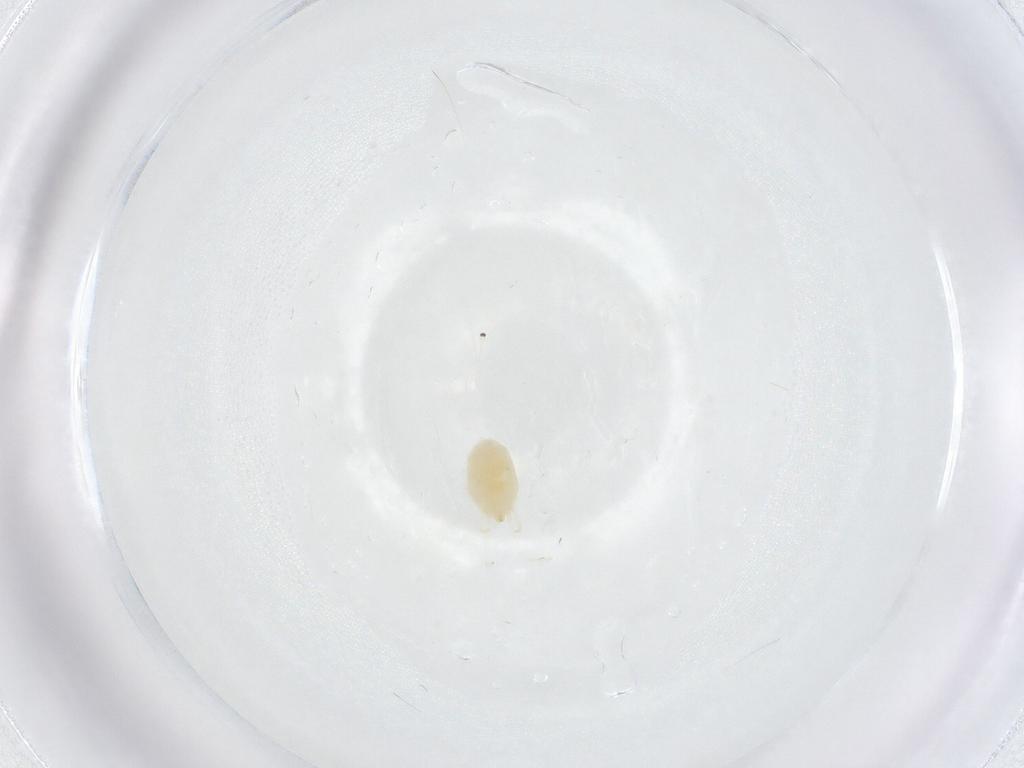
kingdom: Animalia
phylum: Arthropoda
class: Arachnida
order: Trombidiformes
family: Tetranychidae
